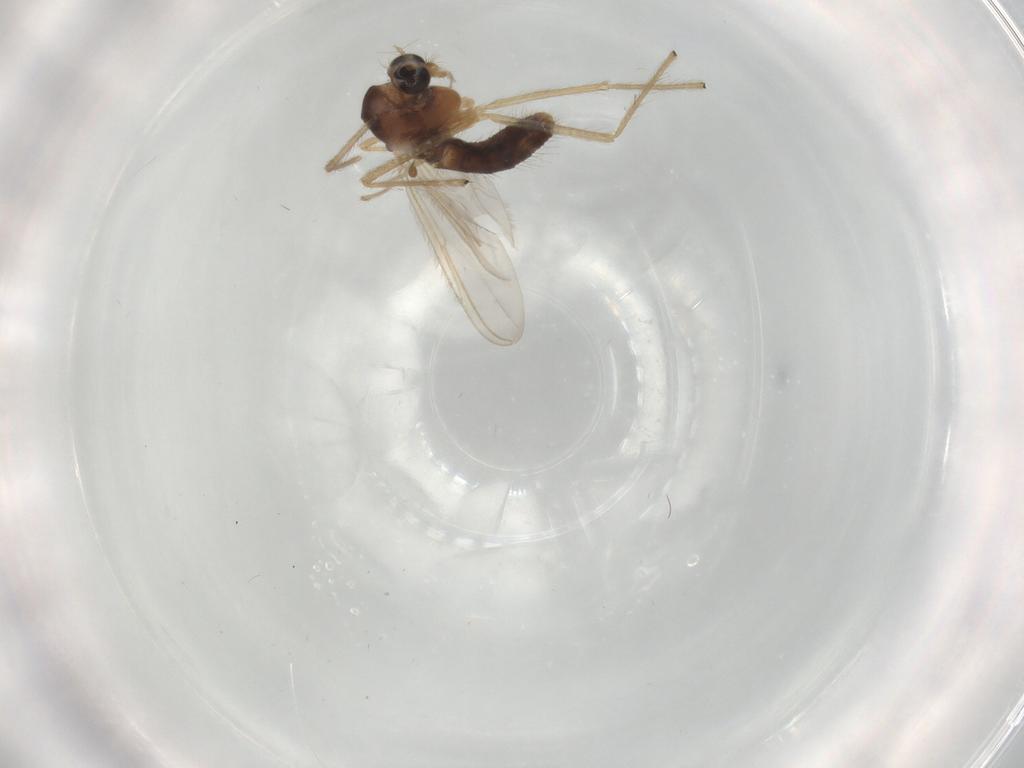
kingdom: Animalia
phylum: Arthropoda
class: Insecta
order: Diptera
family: Chironomidae
